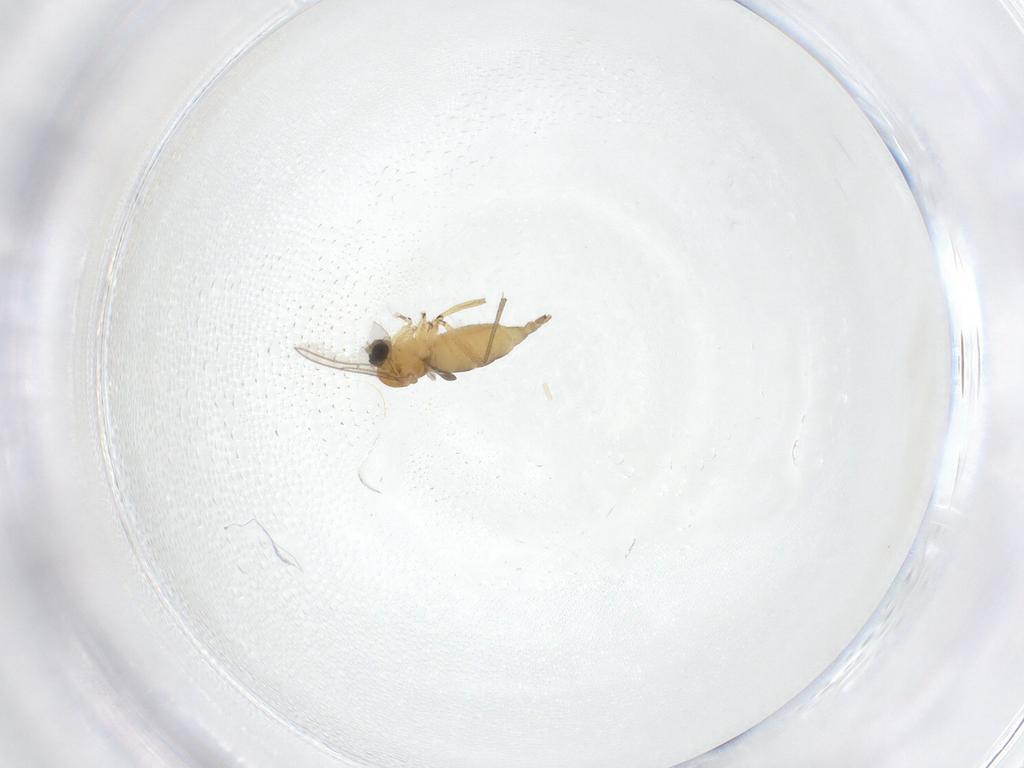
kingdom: Animalia
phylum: Arthropoda
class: Insecta
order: Diptera
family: Sciaridae
